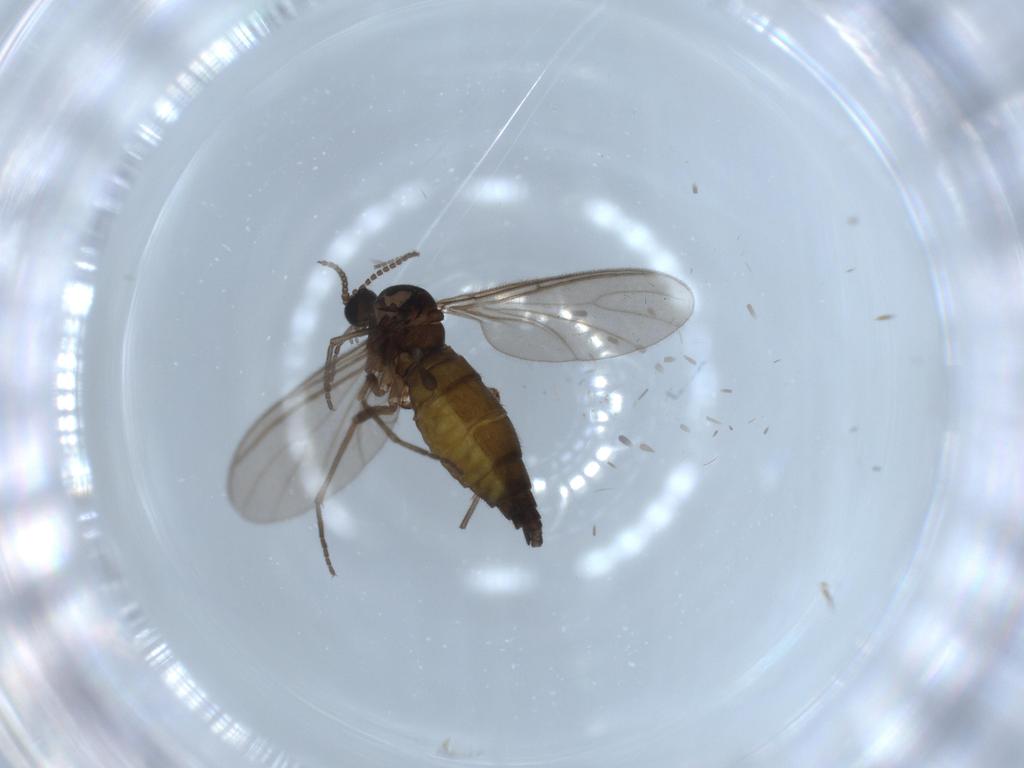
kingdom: Animalia
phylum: Arthropoda
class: Insecta
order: Diptera
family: Sciaridae
